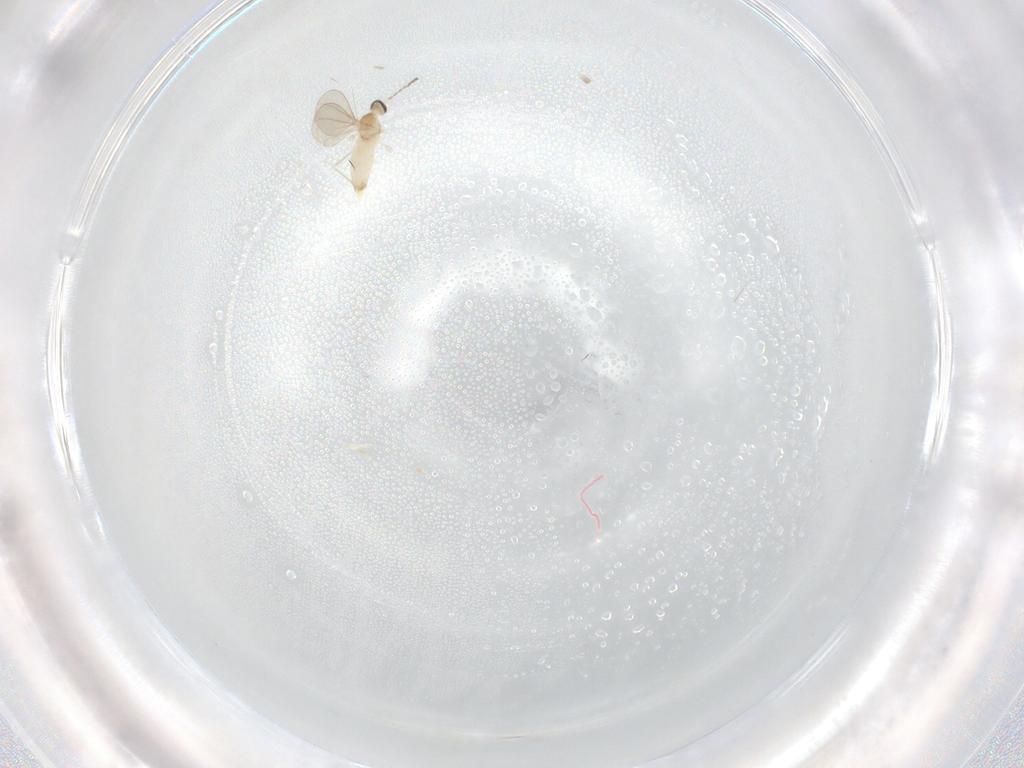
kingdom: Animalia
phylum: Arthropoda
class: Insecta
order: Diptera
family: Cecidomyiidae
